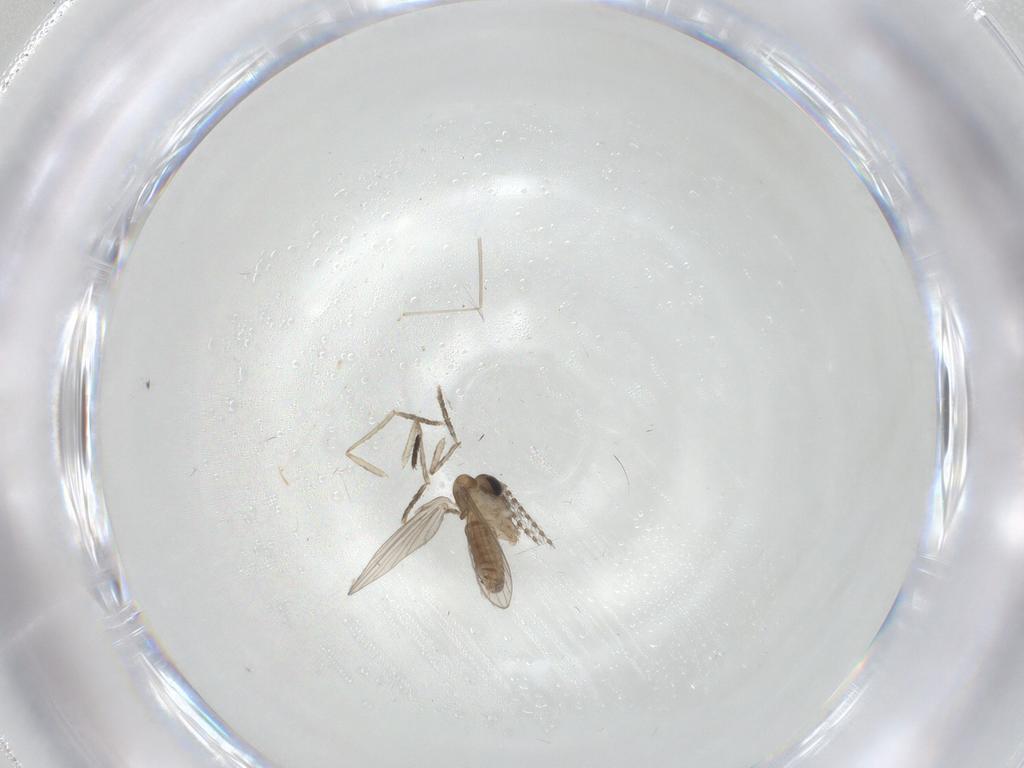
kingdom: Animalia
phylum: Arthropoda
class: Insecta
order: Diptera
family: Psychodidae
